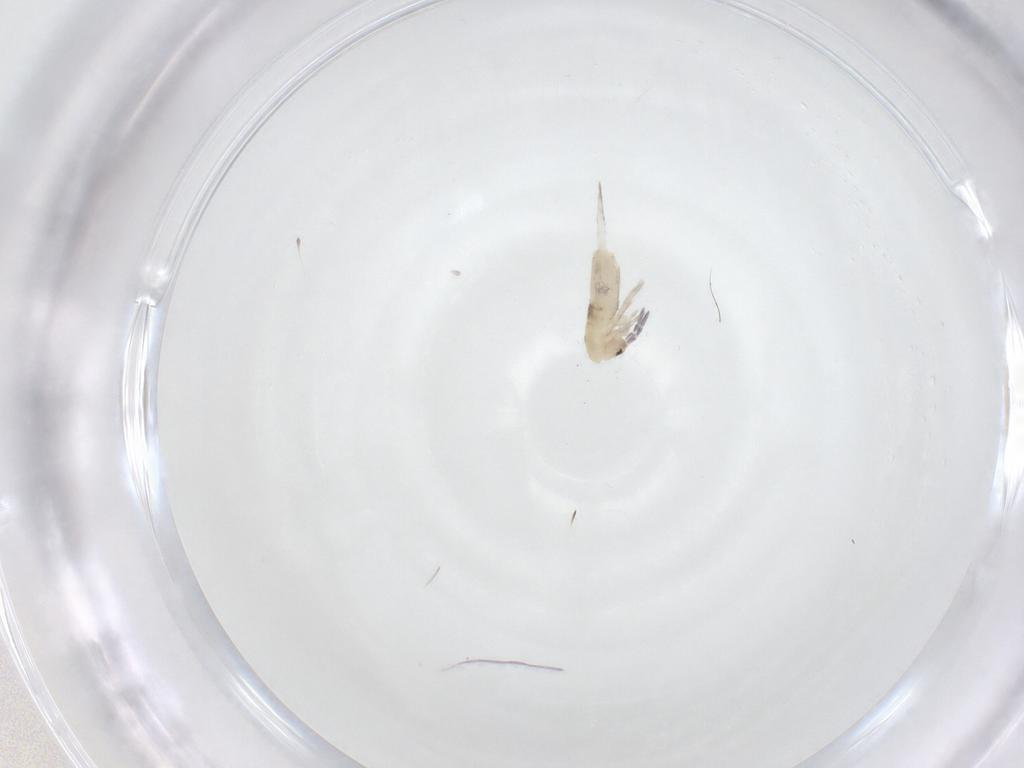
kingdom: Animalia
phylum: Arthropoda
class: Collembola
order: Entomobryomorpha
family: Entomobryidae
